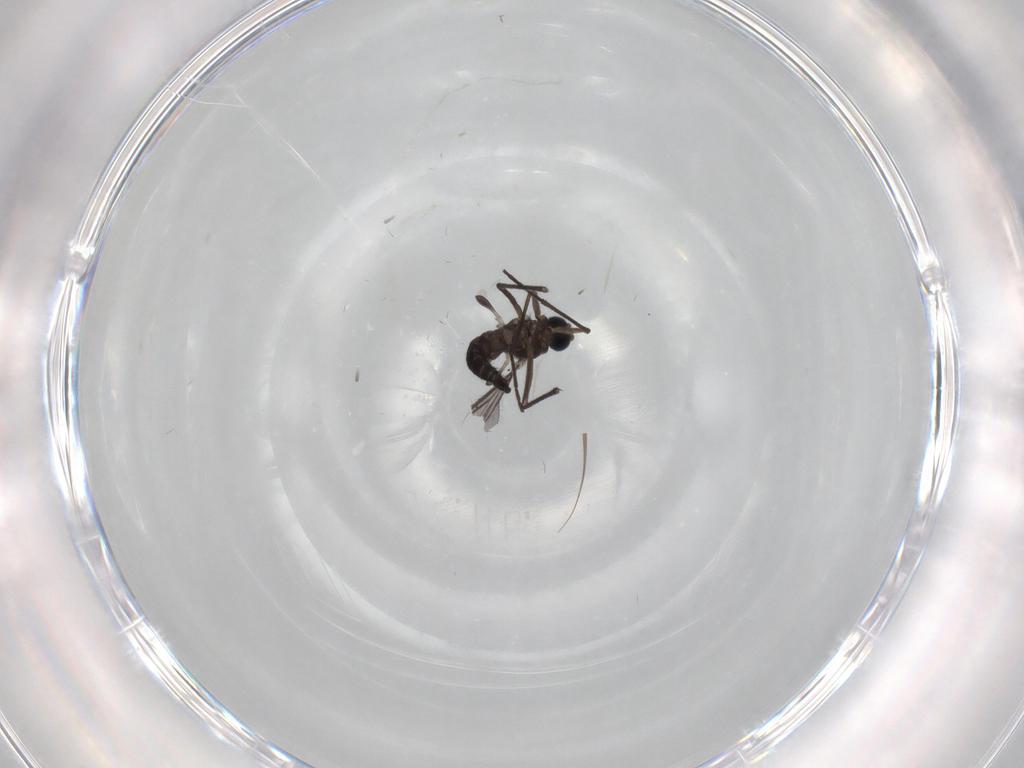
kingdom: Animalia
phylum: Arthropoda
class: Insecta
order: Diptera
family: Sciaridae
